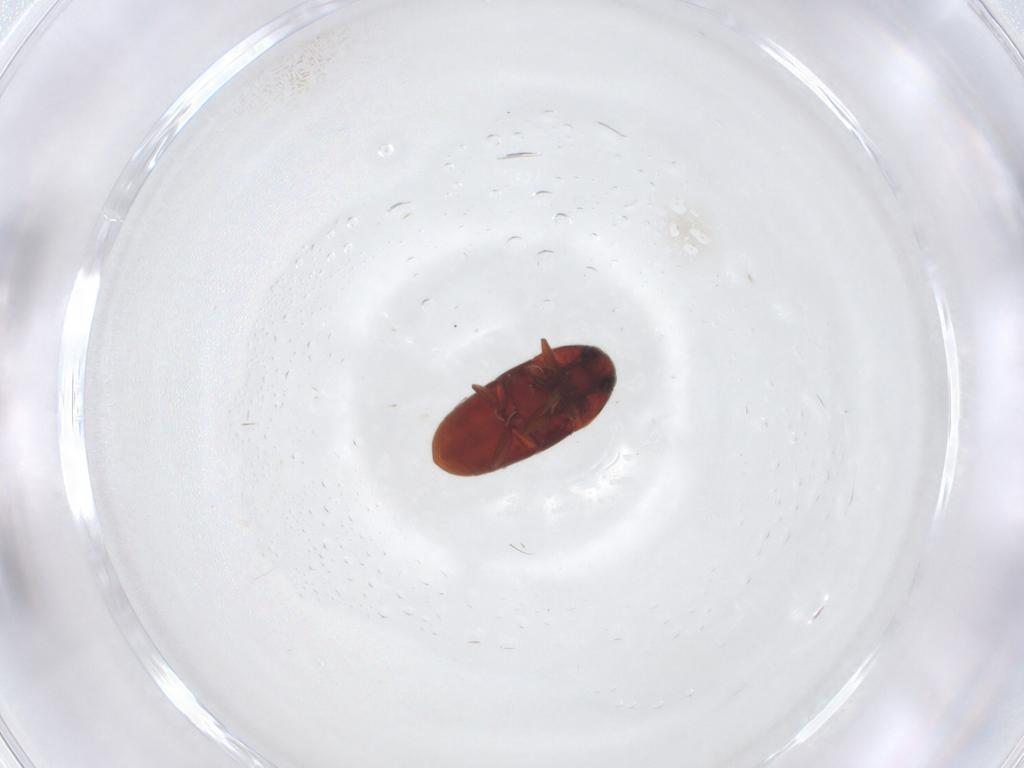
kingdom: Animalia
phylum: Arthropoda
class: Insecta
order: Coleoptera
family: Throscidae
